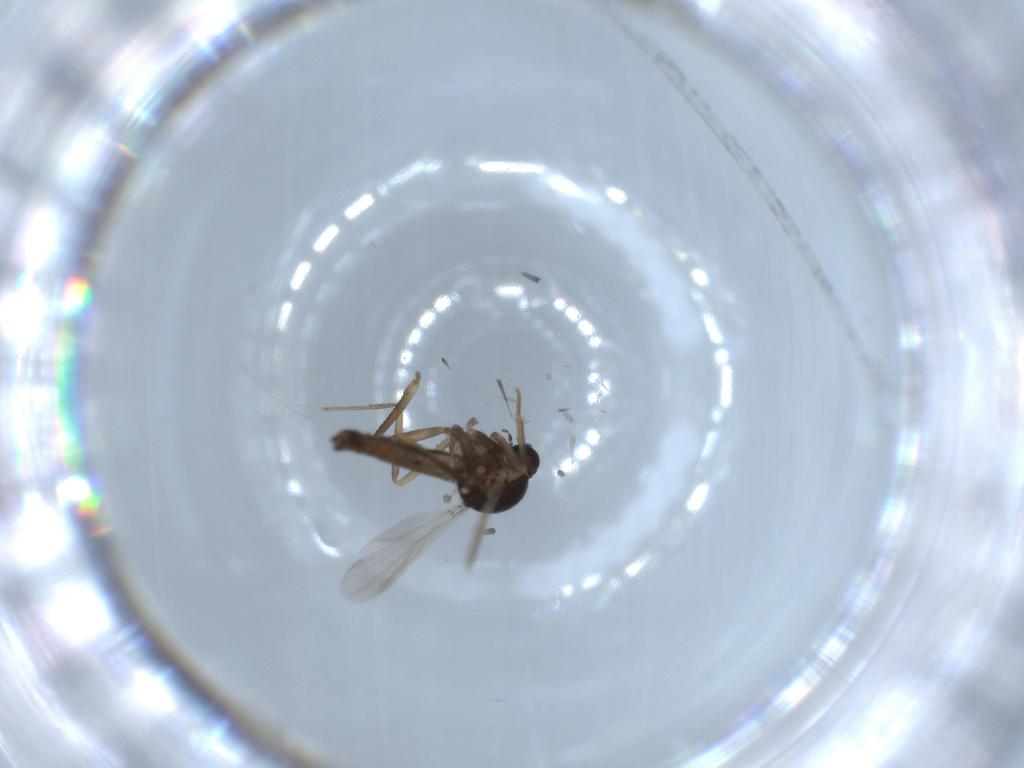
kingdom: Animalia
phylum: Arthropoda
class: Insecta
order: Diptera
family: Ceratopogonidae
